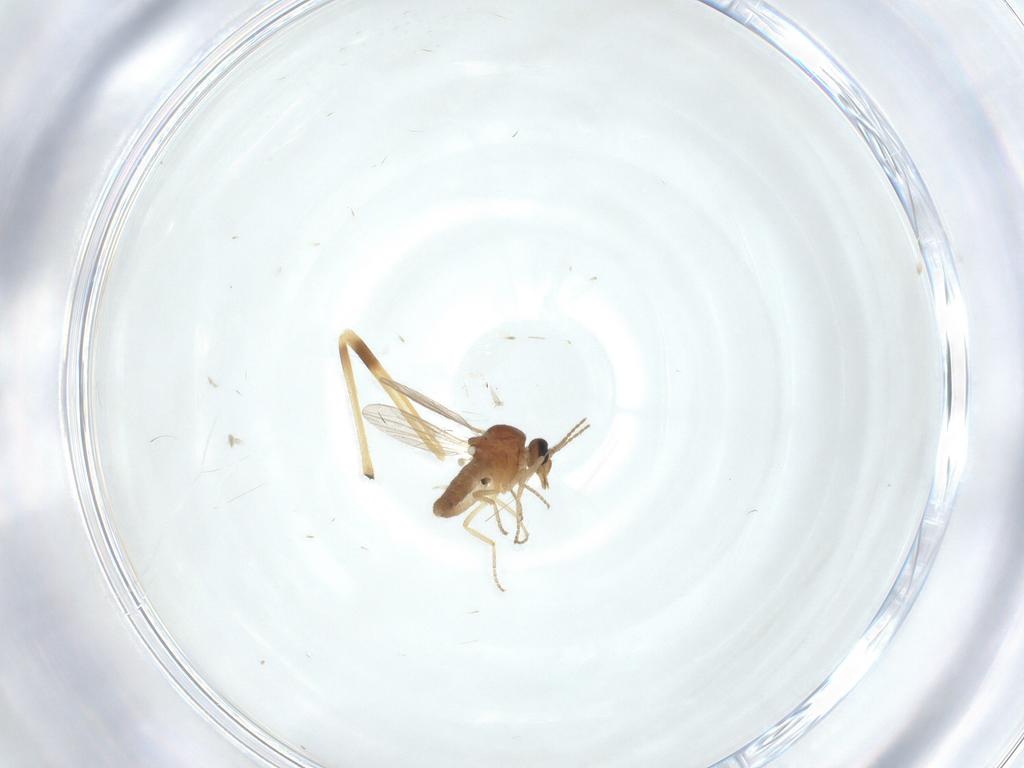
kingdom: Animalia
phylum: Arthropoda
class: Insecta
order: Diptera
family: Ceratopogonidae
